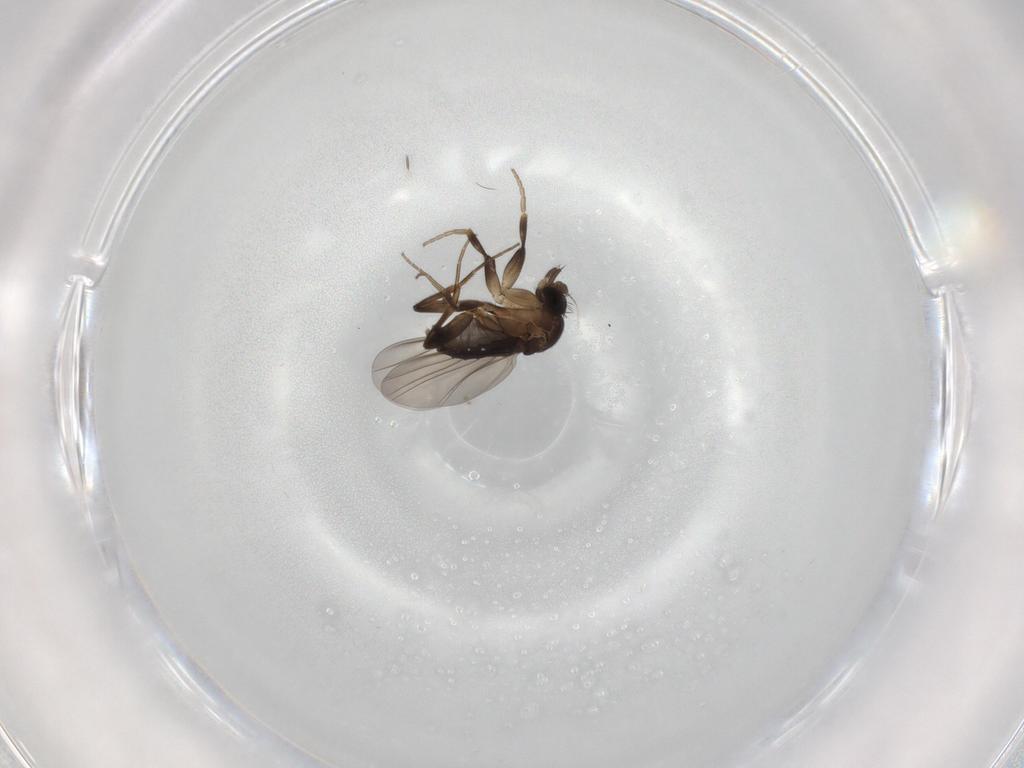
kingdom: Animalia
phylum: Arthropoda
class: Insecta
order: Diptera
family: Phoridae
